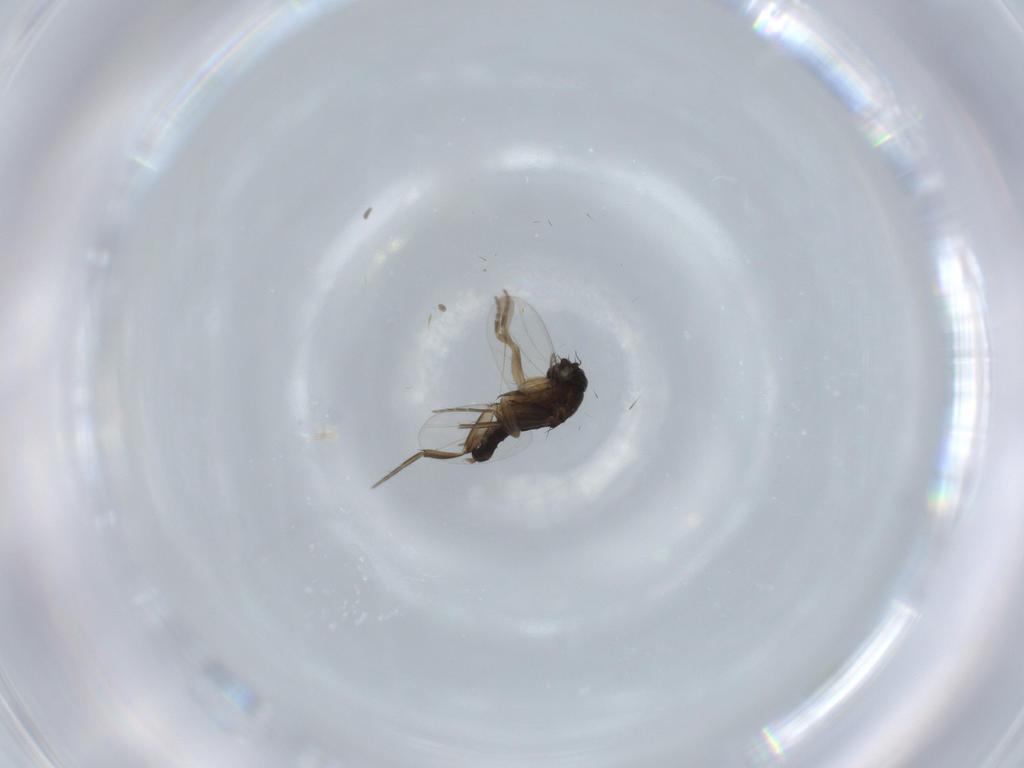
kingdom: Animalia
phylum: Arthropoda
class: Insecta
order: Diptera
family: Phoridae
